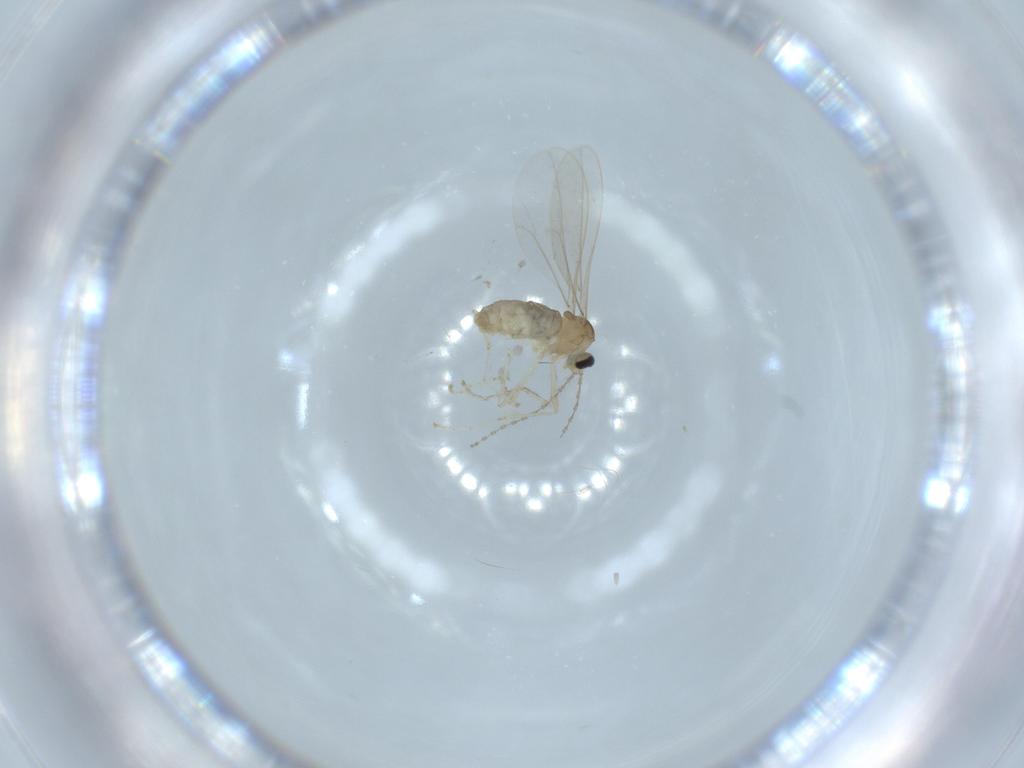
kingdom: Animalia
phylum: Arthropoda
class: Insecta
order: Diptera
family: Cecidomyiidae
